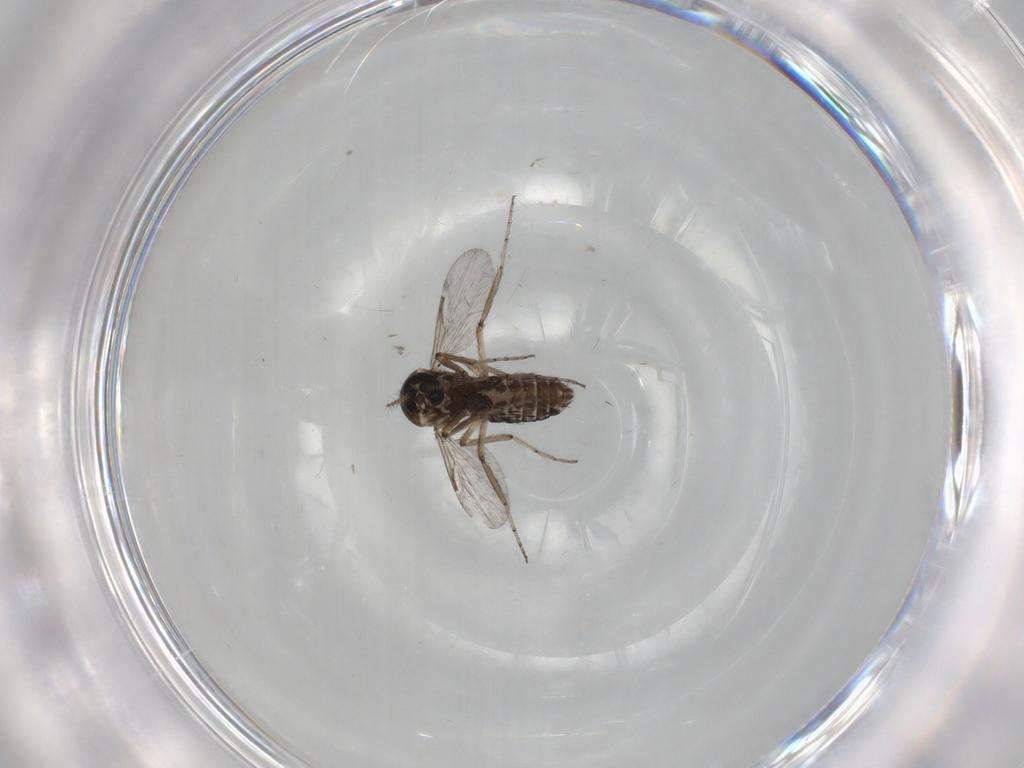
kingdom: Animalia
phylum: Arthropoda
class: Insecta
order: Diptera
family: Ceratopogonidae
